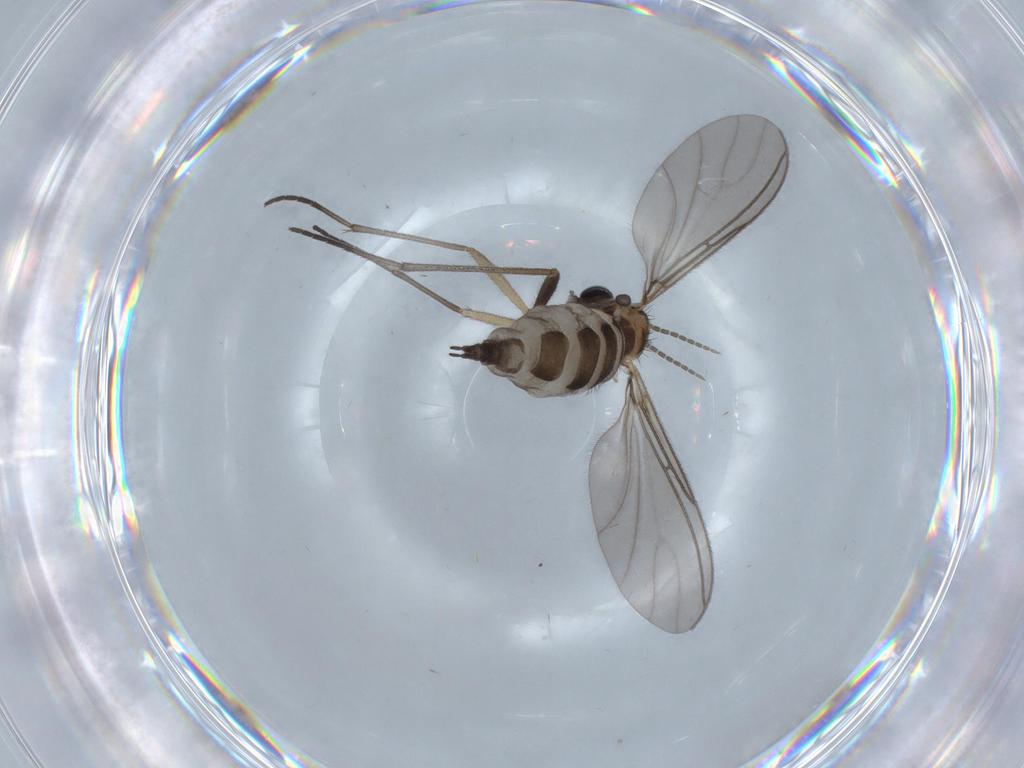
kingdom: Animalia
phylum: Arthropoda
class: Insecta
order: Diptera
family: Sciaridae
